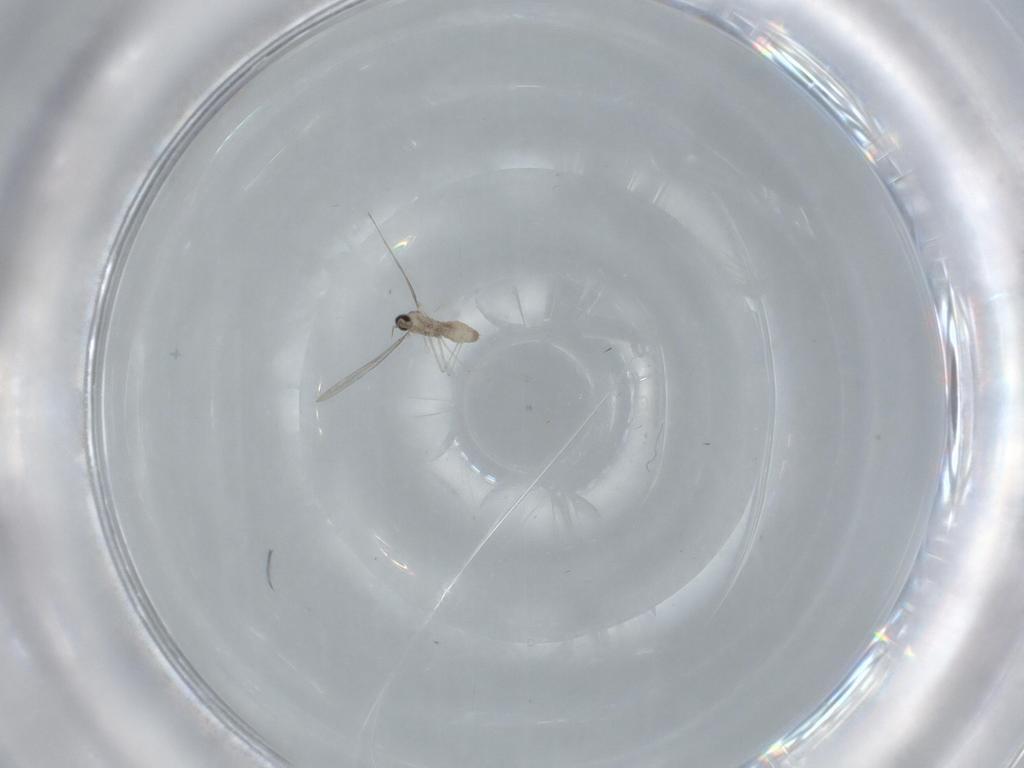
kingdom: Animalia
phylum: Arthropoda
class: Insecta
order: Diptera
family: Cecidomyiidae
